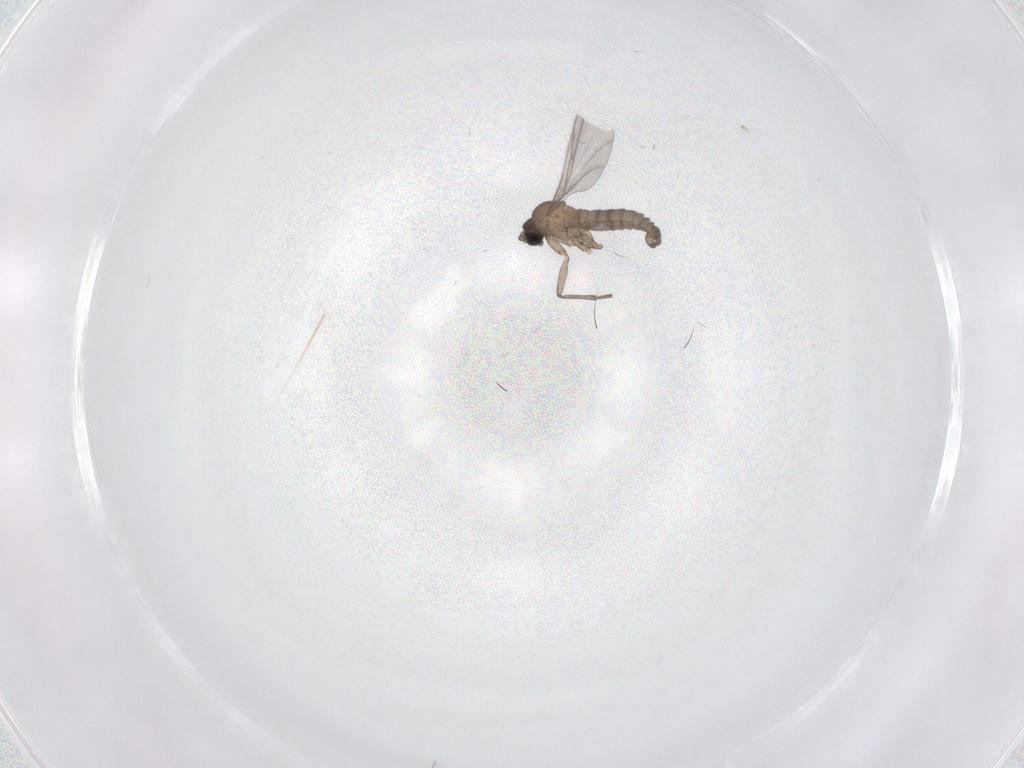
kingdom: Animalia
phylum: Arthropoda
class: Insecta
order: Diptera
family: Sciaridae
